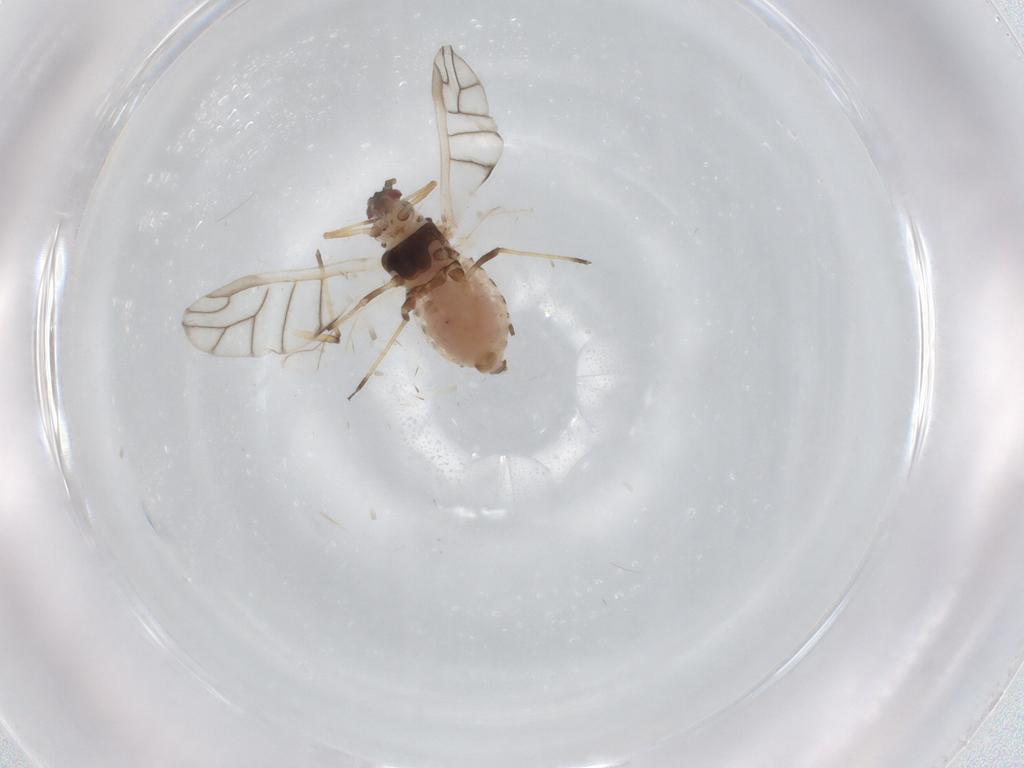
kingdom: Animalia
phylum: Arthropoda
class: Insecta
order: Hemiptera
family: Aphididae
